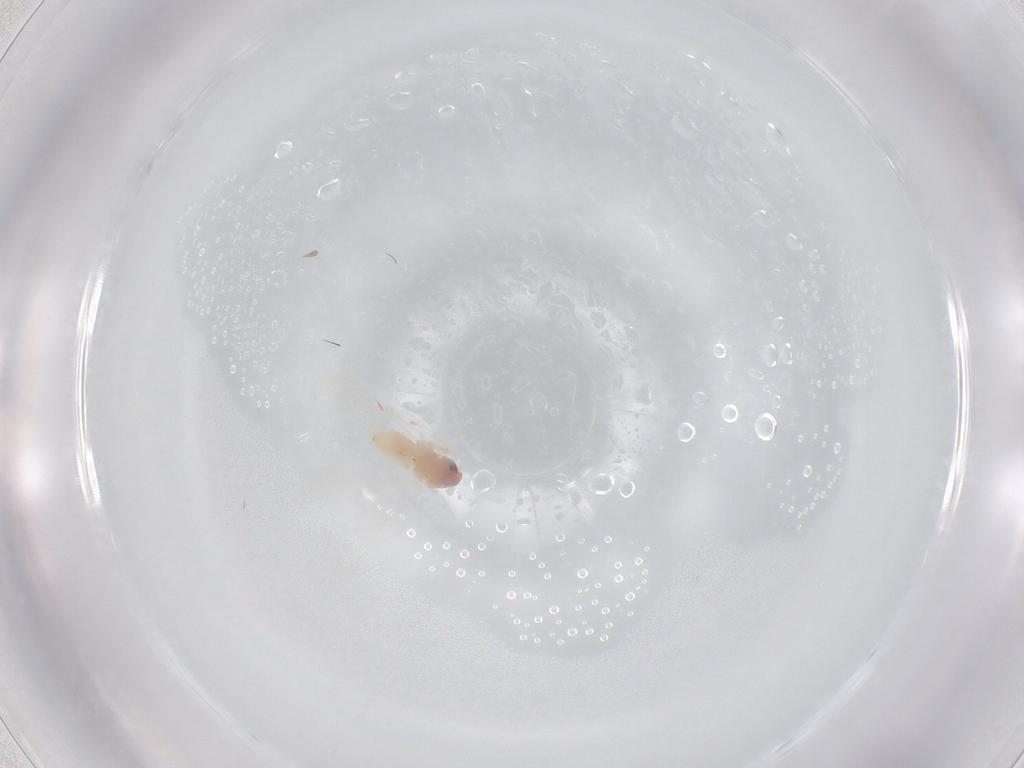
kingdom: Animalia
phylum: Arthropoda
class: Insecta
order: Hemiptera
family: Aleyrodidae
